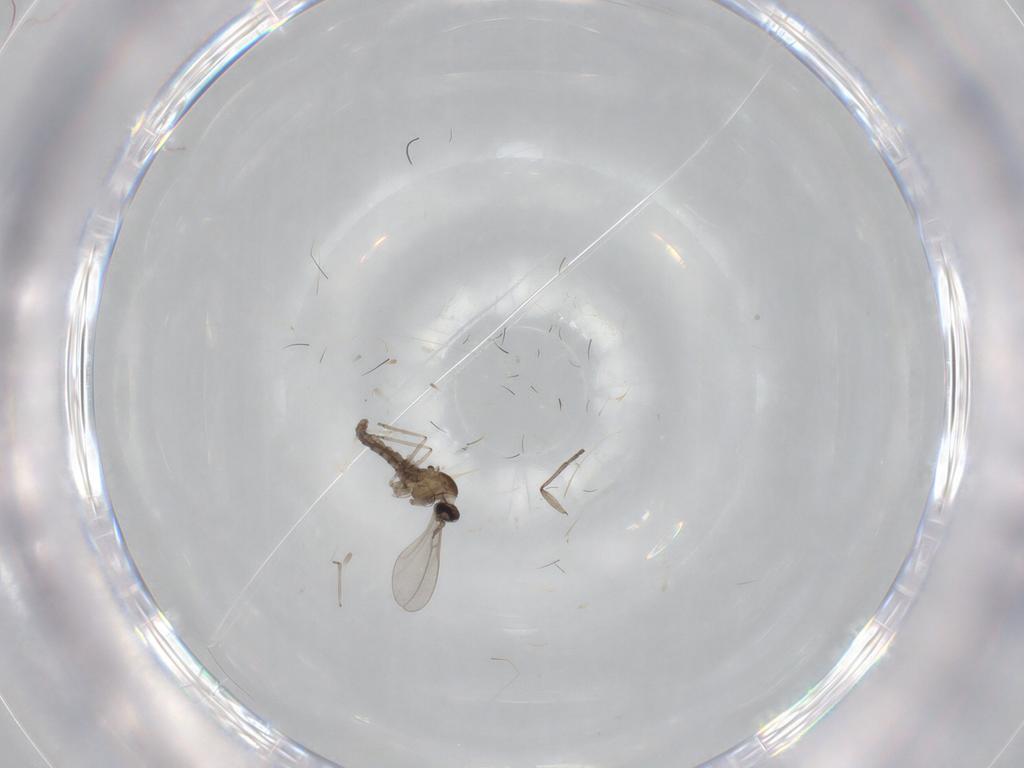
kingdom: Animalia
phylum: Arthropoda
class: Insecta
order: Diptera
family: Cecidomyiidae
